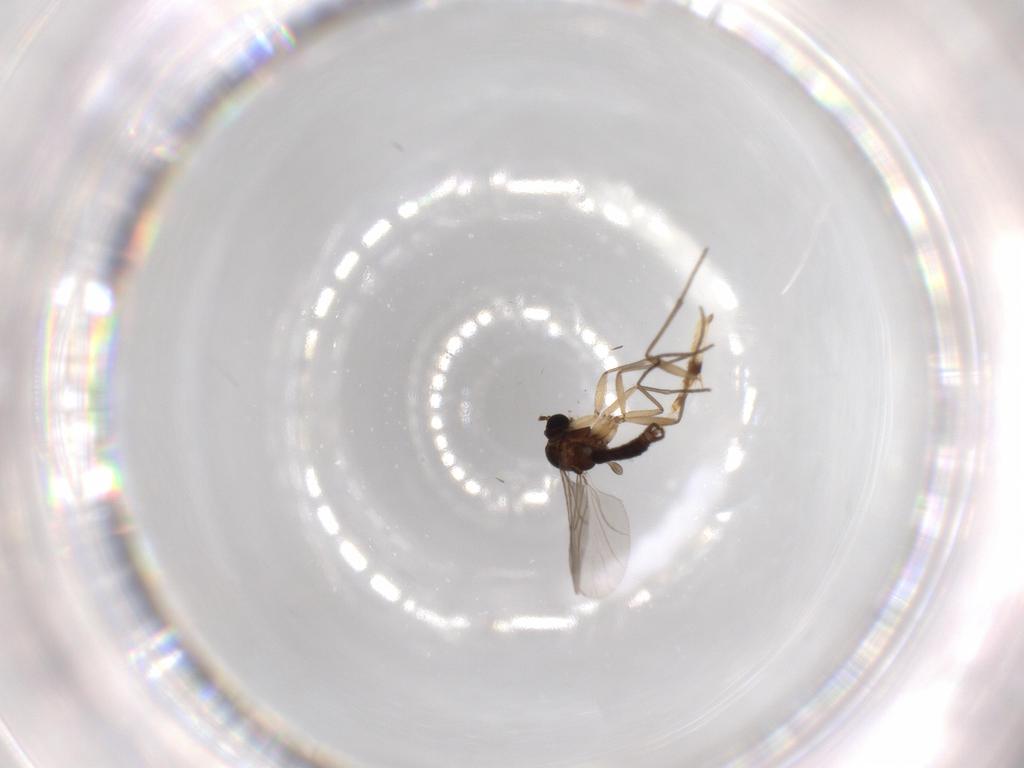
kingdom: Animalia
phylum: Arthropoda
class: Insecta
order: Diptera
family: Sciaridae
